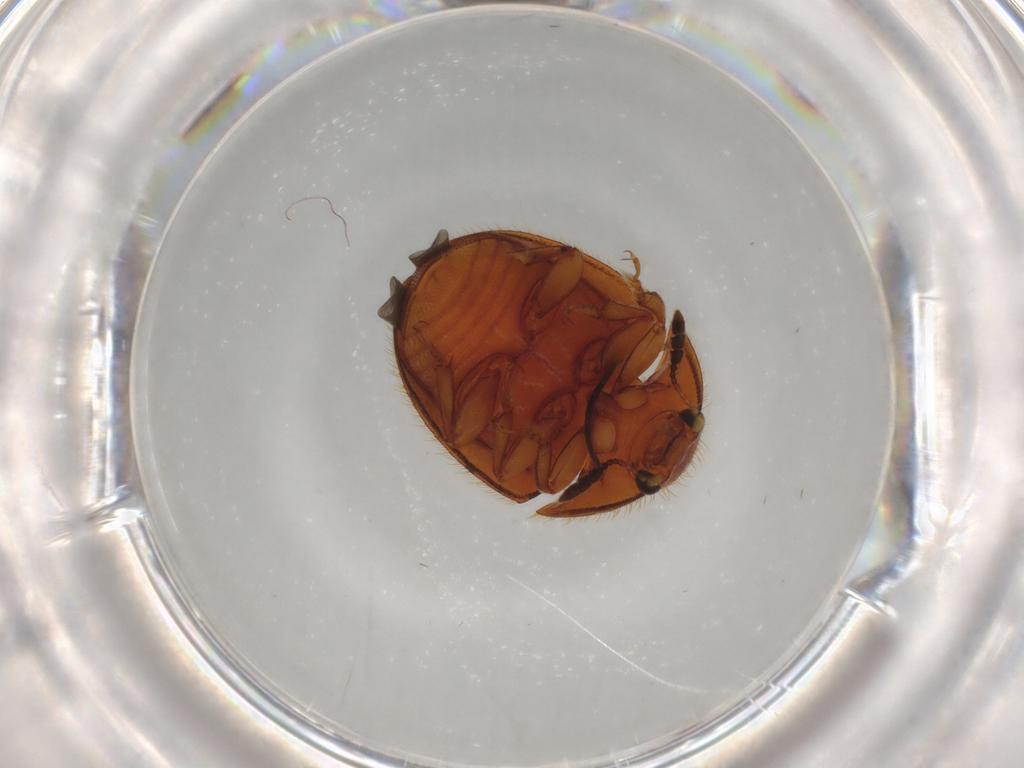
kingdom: Animalia
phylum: Arthropoda
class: Insecta
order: Coleoptera
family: Nitidulidae
